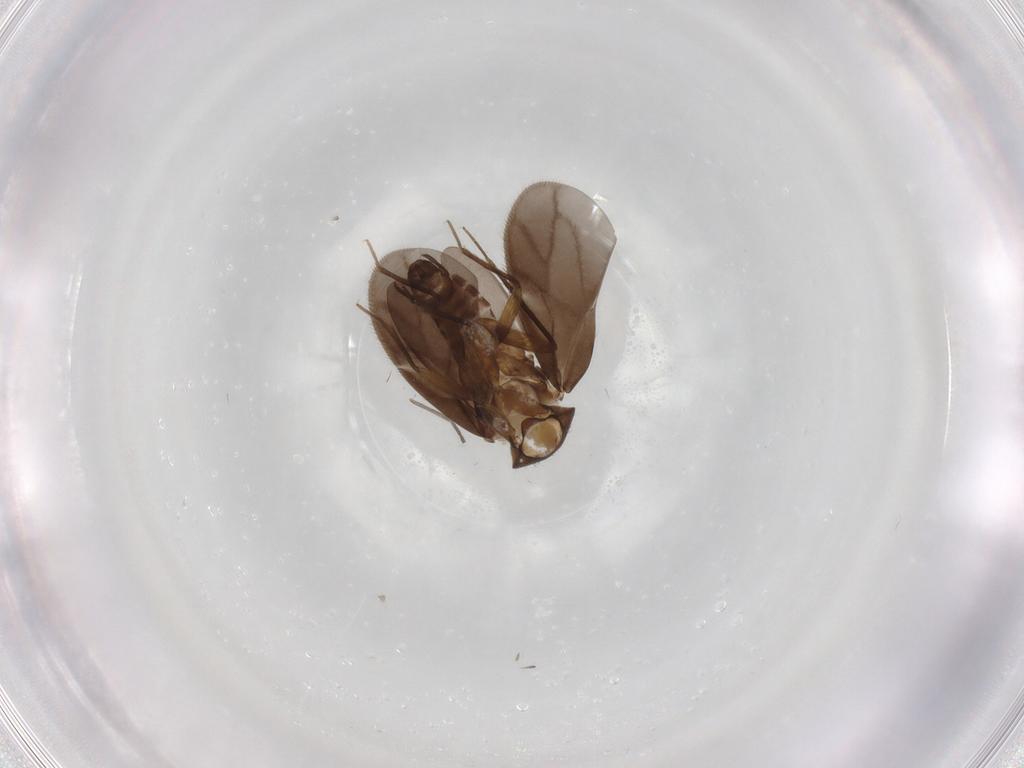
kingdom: Animalia
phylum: Arthropoda
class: Insecta
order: Hemiptera
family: Ceratocombidae
